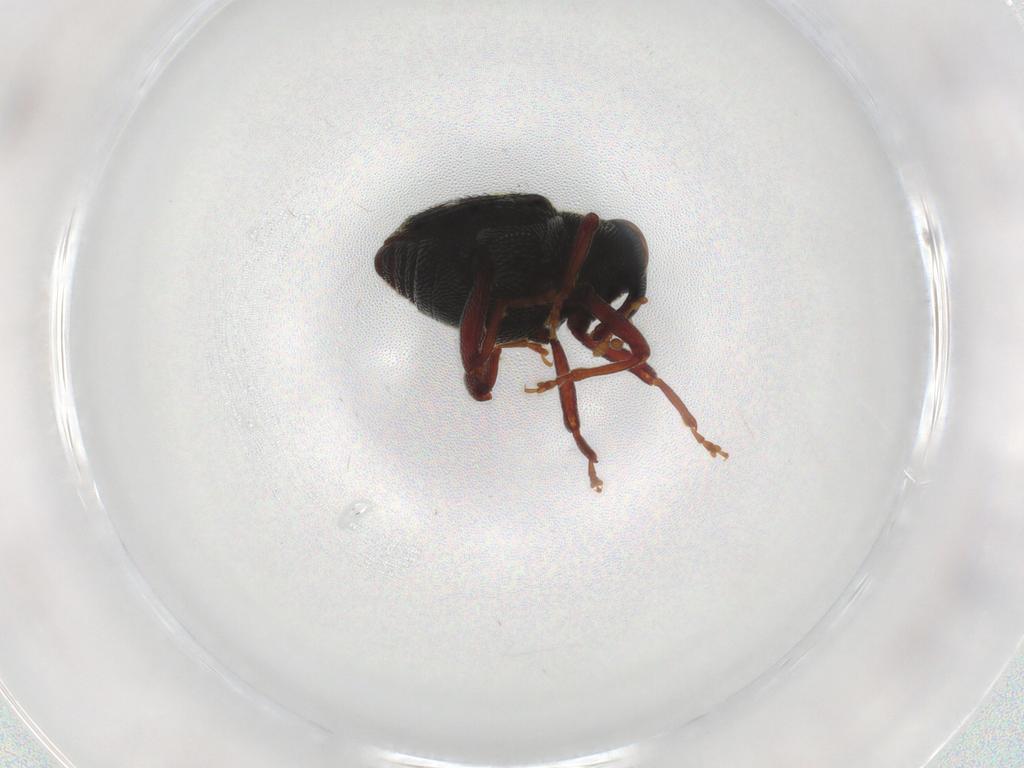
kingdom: Animalia
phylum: Arthropoda
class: Insecta
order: Coleoptera
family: Curculionidae
